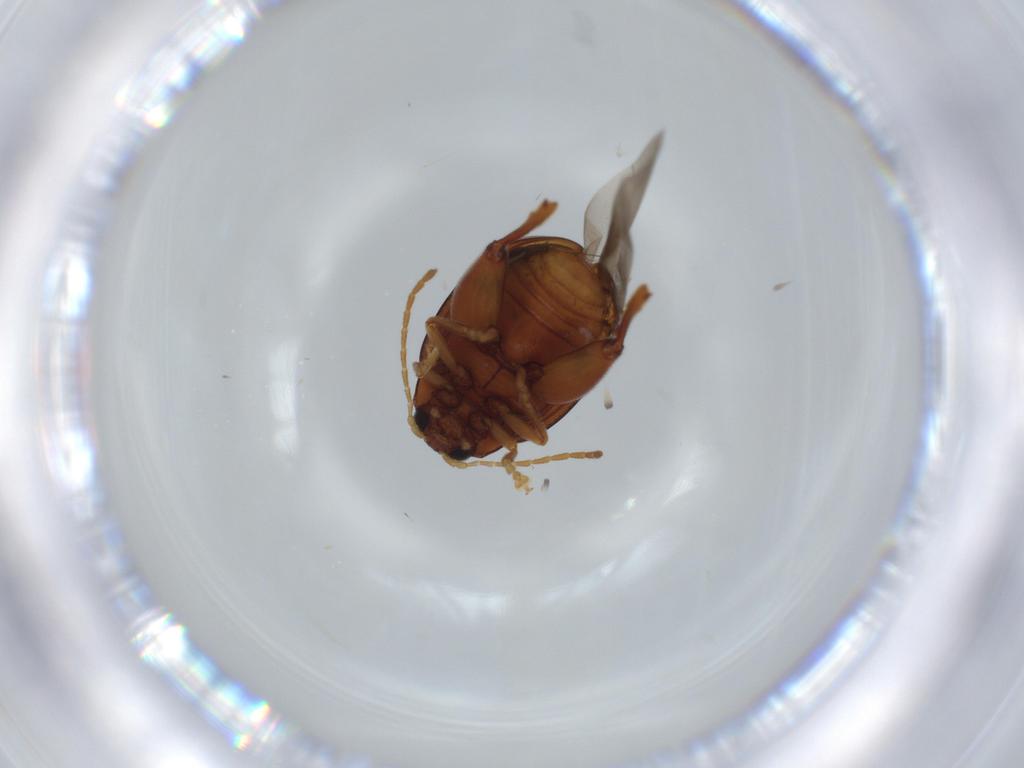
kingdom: Animalia
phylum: Arthropoda
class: Insecta
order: Coleoptera
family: Chrysomelidae
